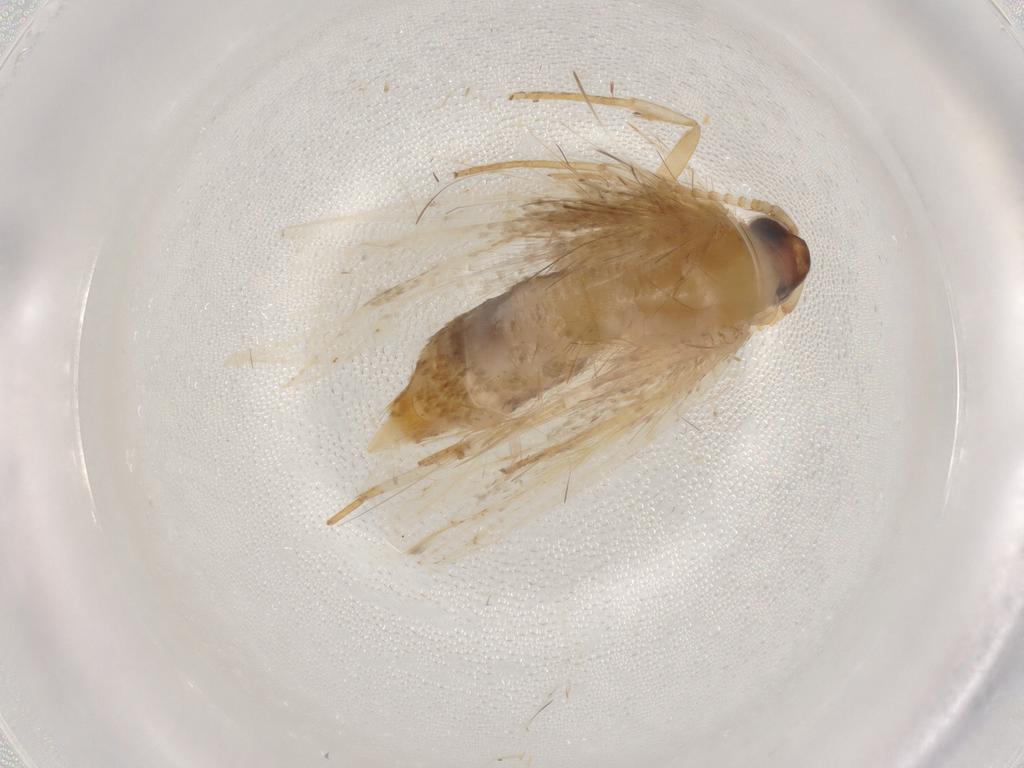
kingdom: Animalia
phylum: Arthropoda
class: Insecta
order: Lepidoptera
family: Lecithoceridae
